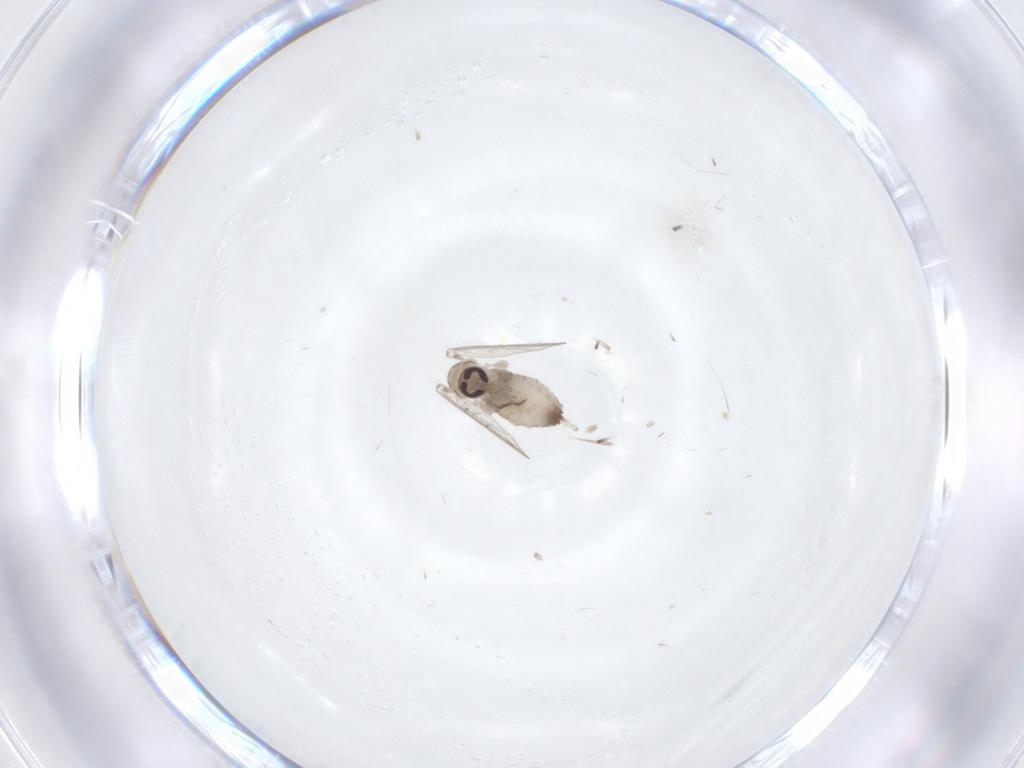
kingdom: Animalia
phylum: Arthropoda
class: Insecta
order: Diptera
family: Psychodidae
